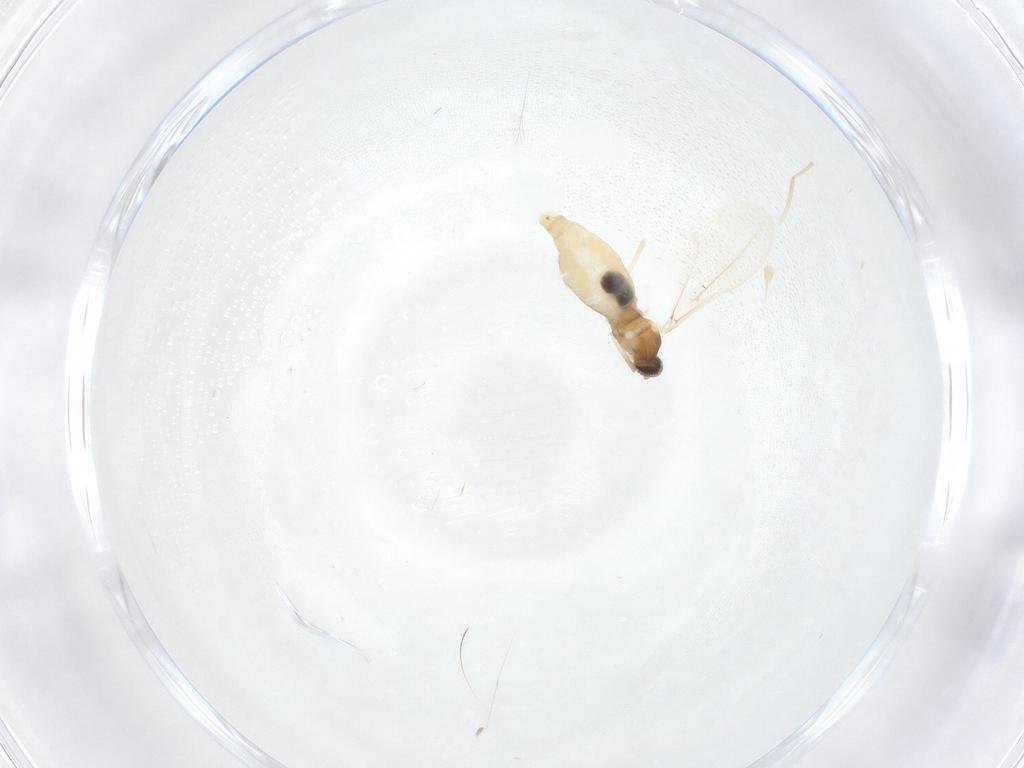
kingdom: Animalia
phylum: Arthropoda
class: Insecta
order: Diptera
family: Cecidomyiidae
